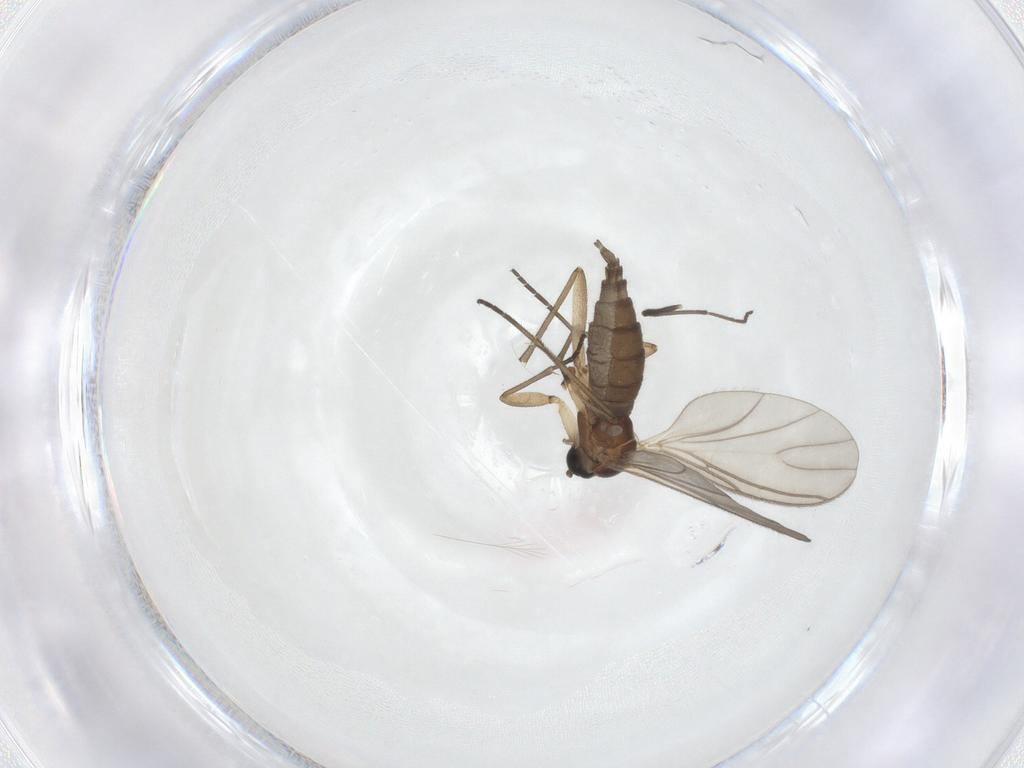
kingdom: Animalia
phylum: Arthropoda
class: Insecta
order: Diptera
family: Sciaridae
